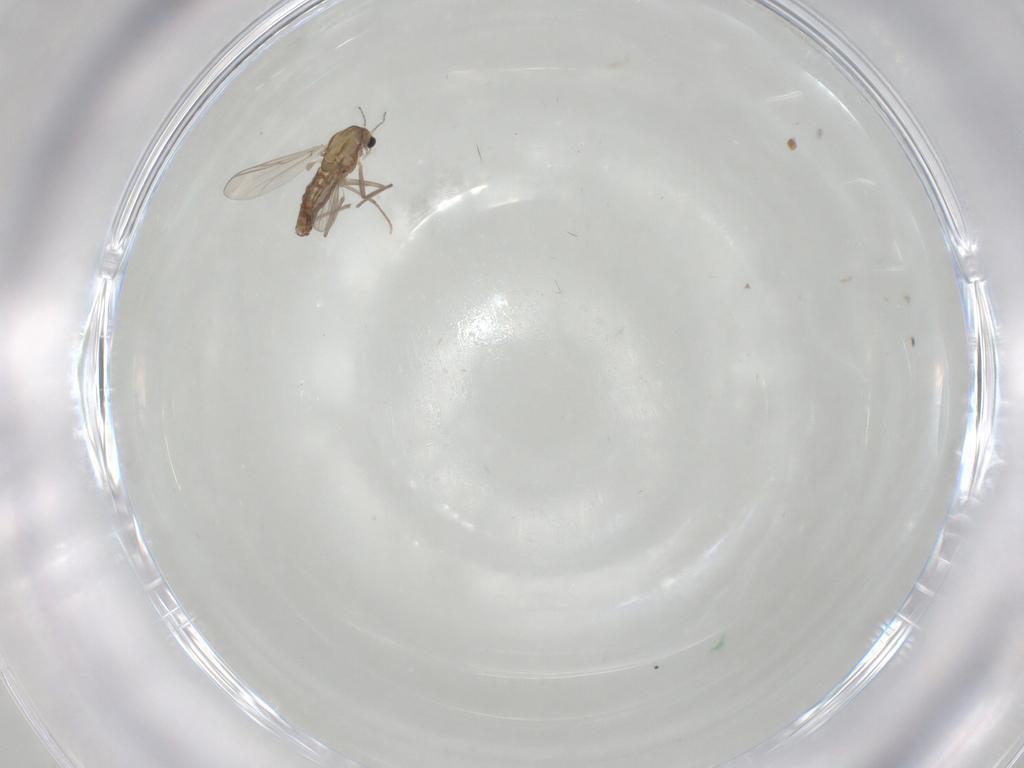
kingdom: Animalia
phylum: Arthropoda
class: Insecta
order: Diptera
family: Chironomidae
